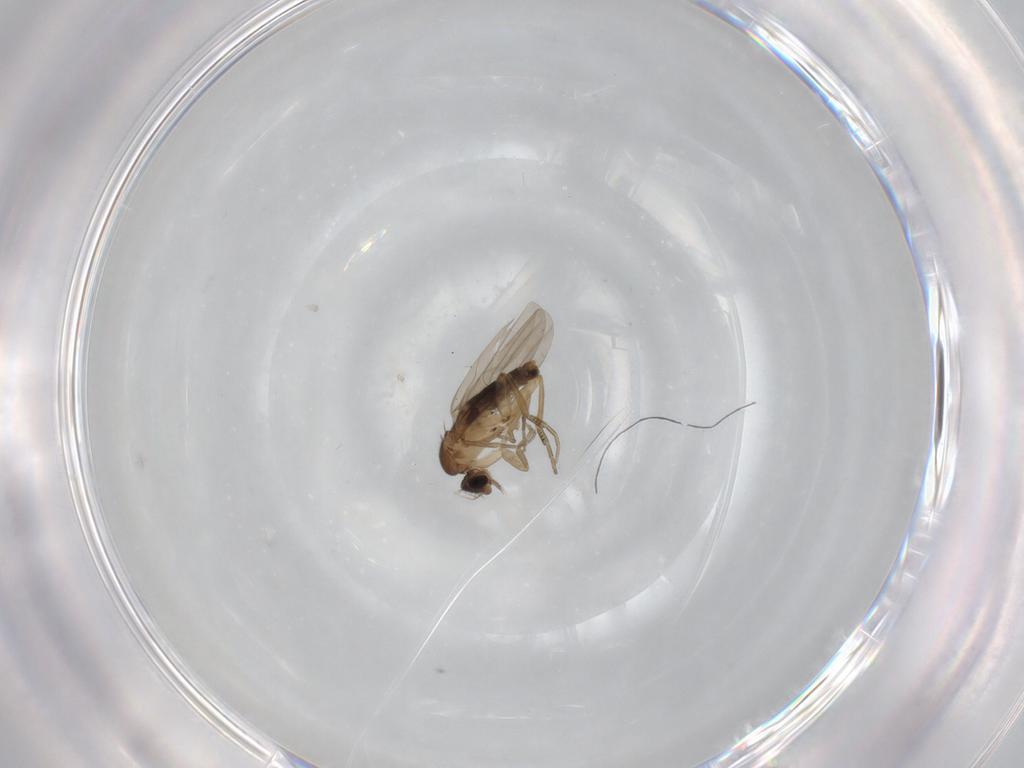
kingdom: Animalia
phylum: Arthropoda
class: Insecta
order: Diptera
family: Phoridae
